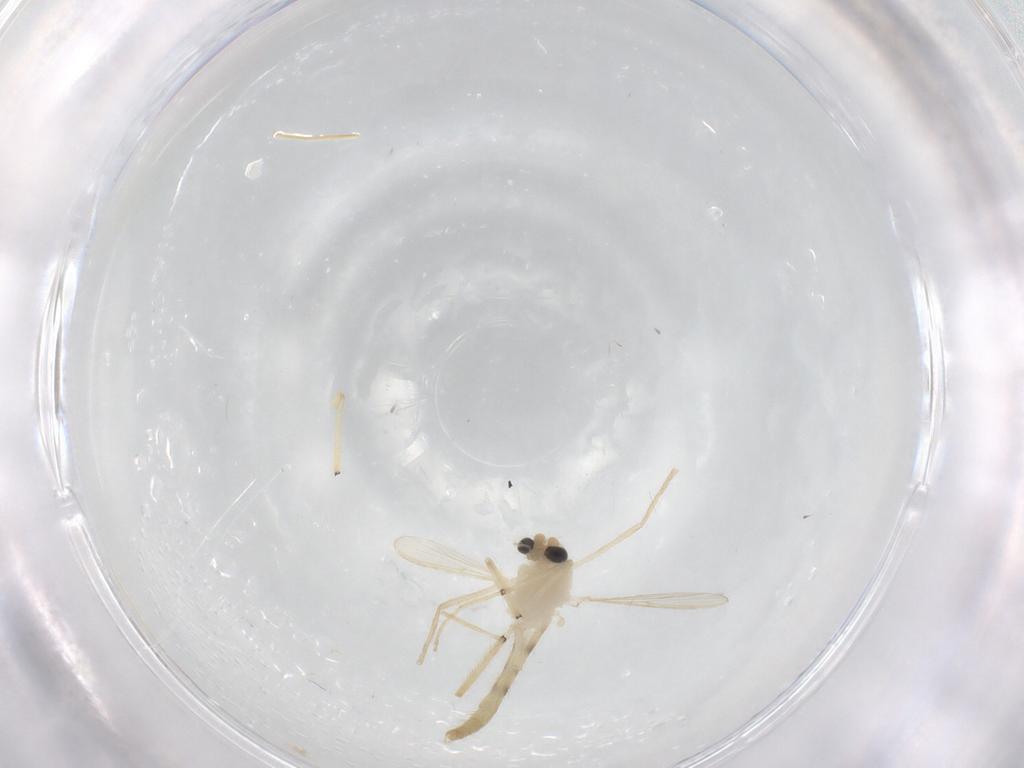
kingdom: Animalia
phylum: Arthropoda
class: Insecta
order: Diptera
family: Chironomidae
